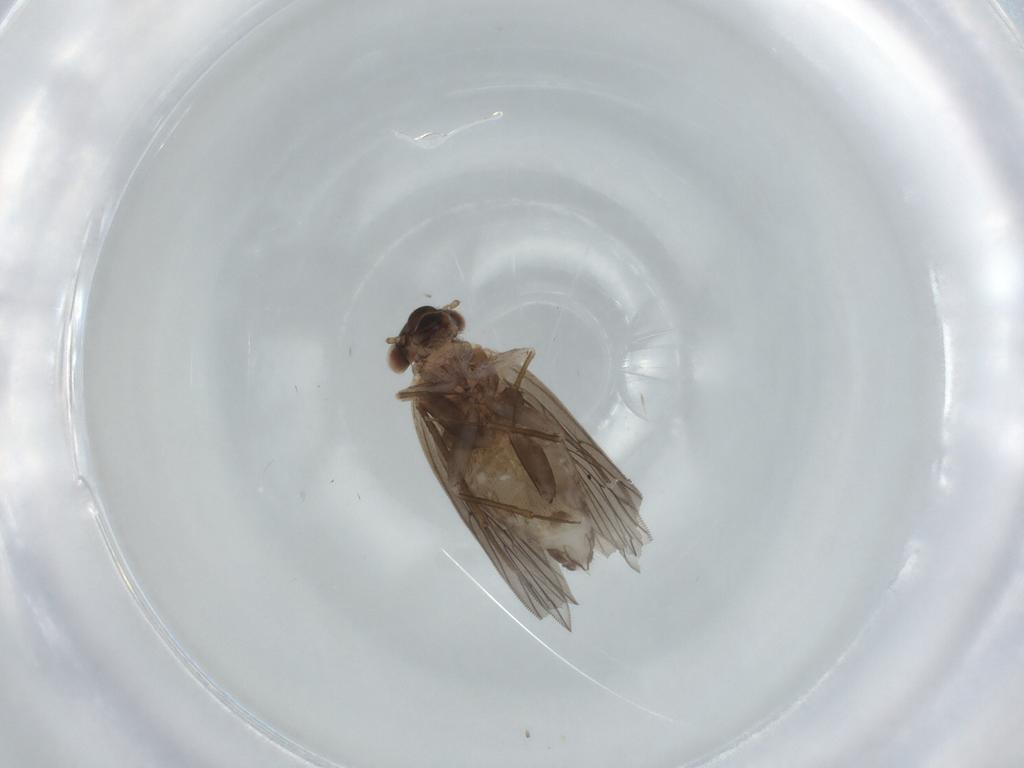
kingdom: Animalia
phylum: Arthropoda
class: Insecta
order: Psocodea
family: Lepidopsocidae
